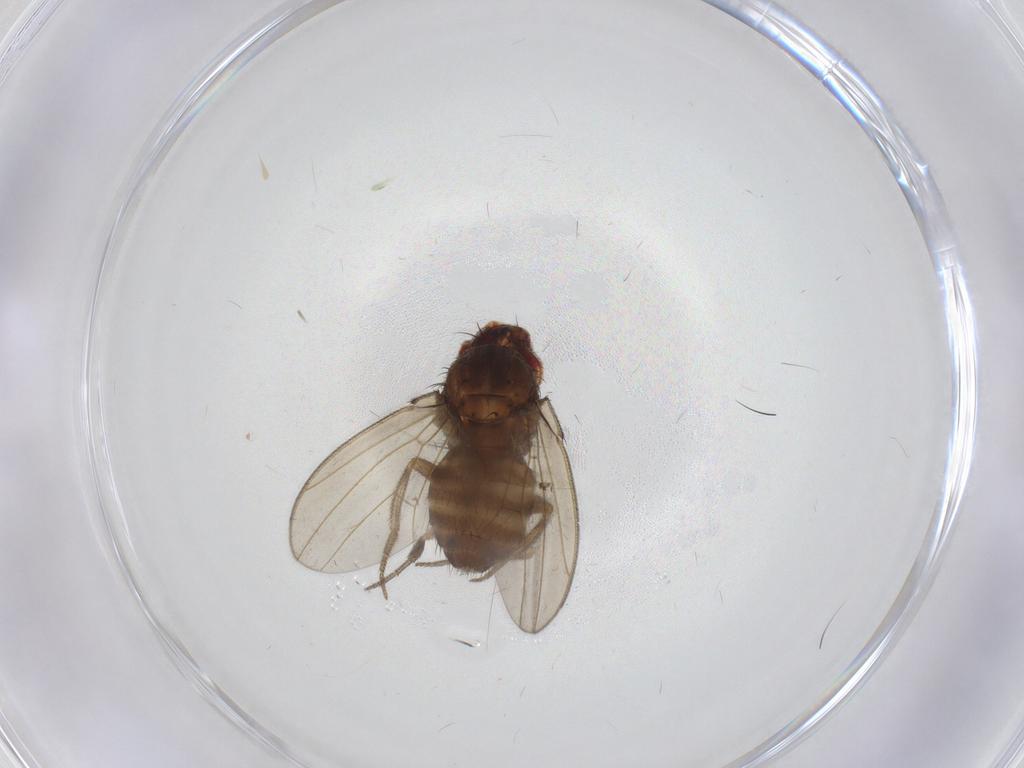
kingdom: Animalia
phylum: Arthropoda
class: Insecta
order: Diptera
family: Drosophilidae
